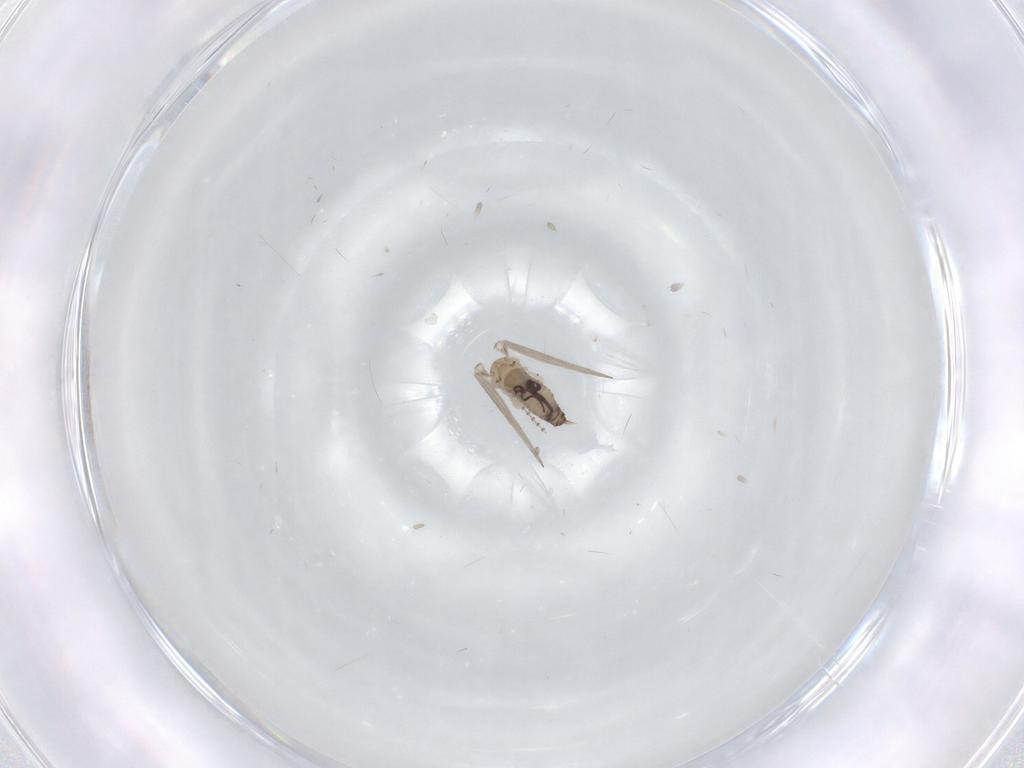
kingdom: Animalia
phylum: Arthropoda
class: Insecta
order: Diptera
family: Psychodidae
